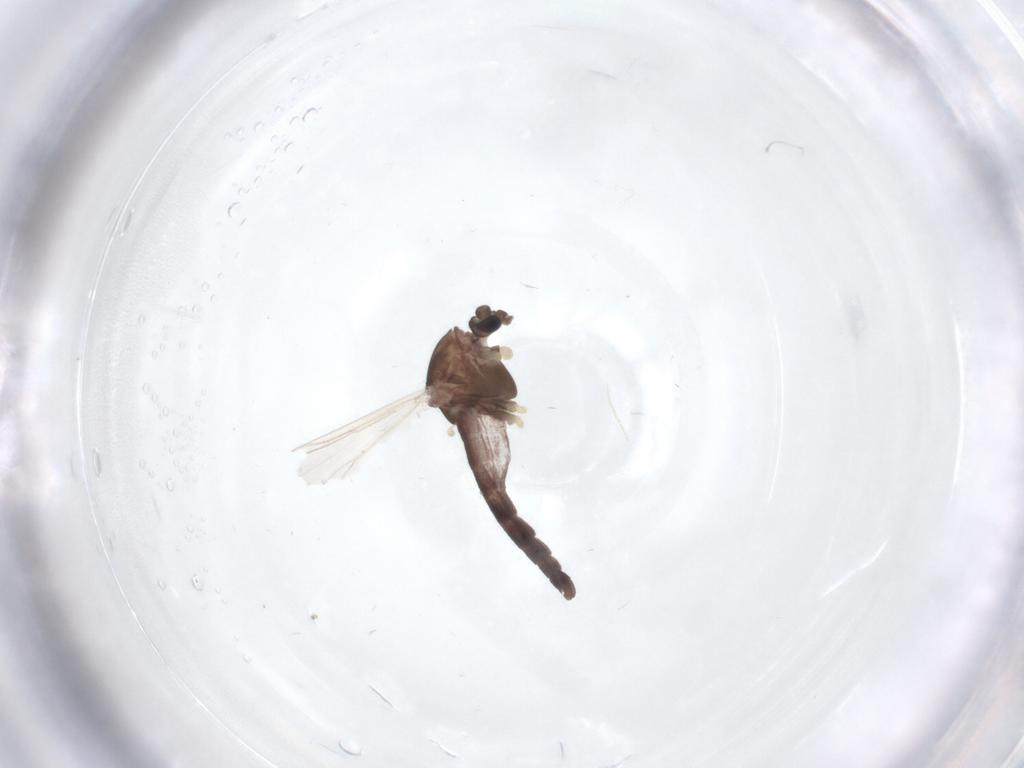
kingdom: Animalia
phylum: Arthropoda
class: Insecta
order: Diptera
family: Chironomidae
